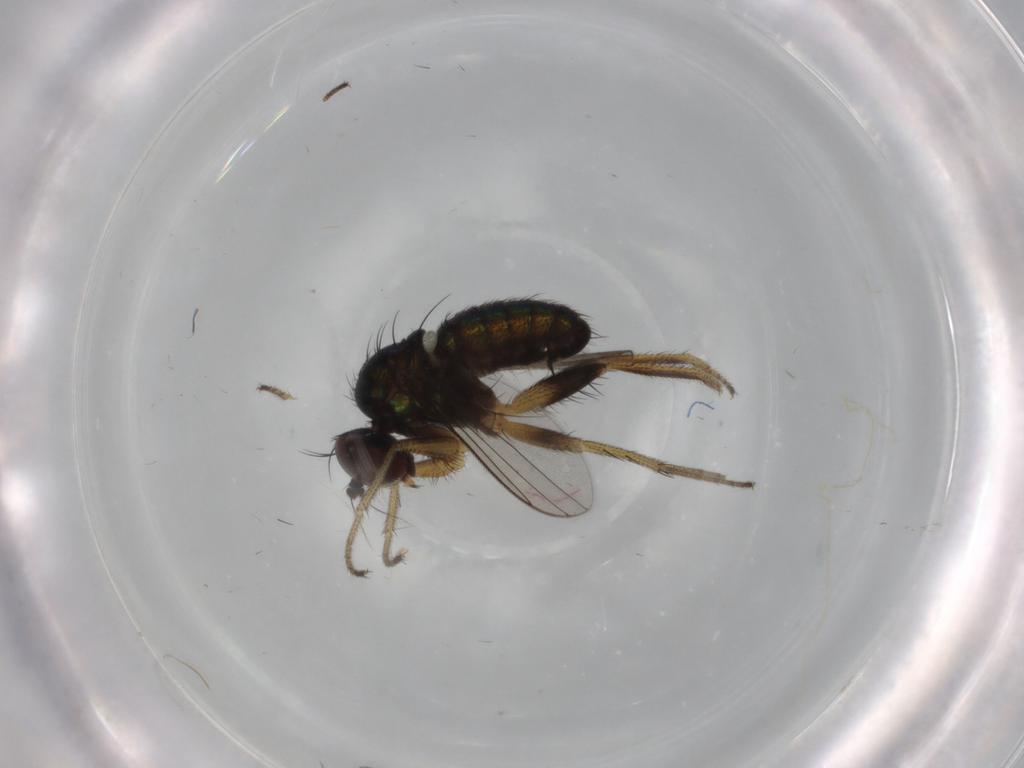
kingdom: Animalia
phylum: Arthropoda
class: Insecta
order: Diptera
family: Dolichopodidae
